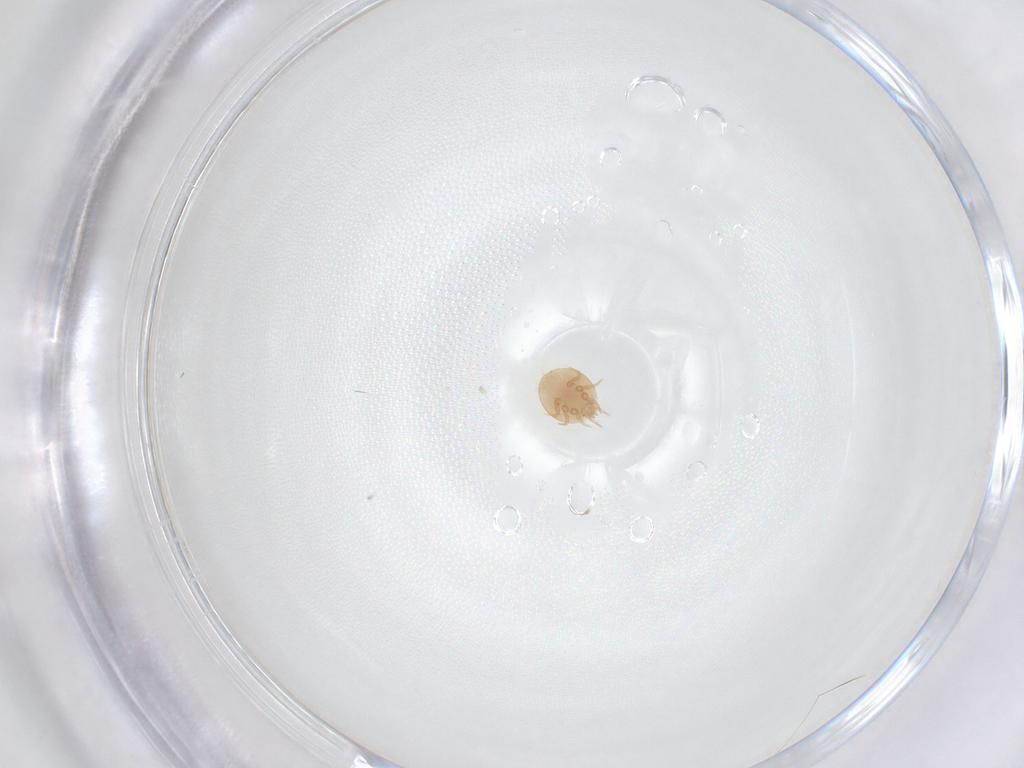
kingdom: Animalia
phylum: Arthropoda
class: Arachnida
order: Mesostigmata
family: Trematuridae
